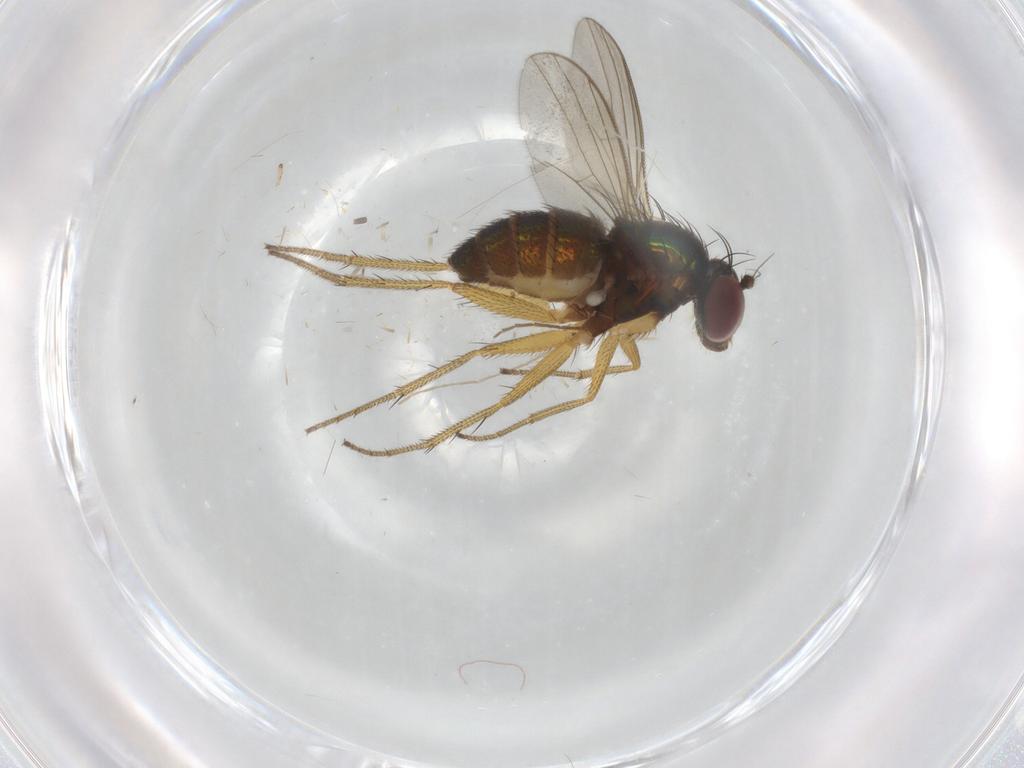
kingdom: Animalia
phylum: Arthropoda
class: Insecta
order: Diptera
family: Dolichopodidae
